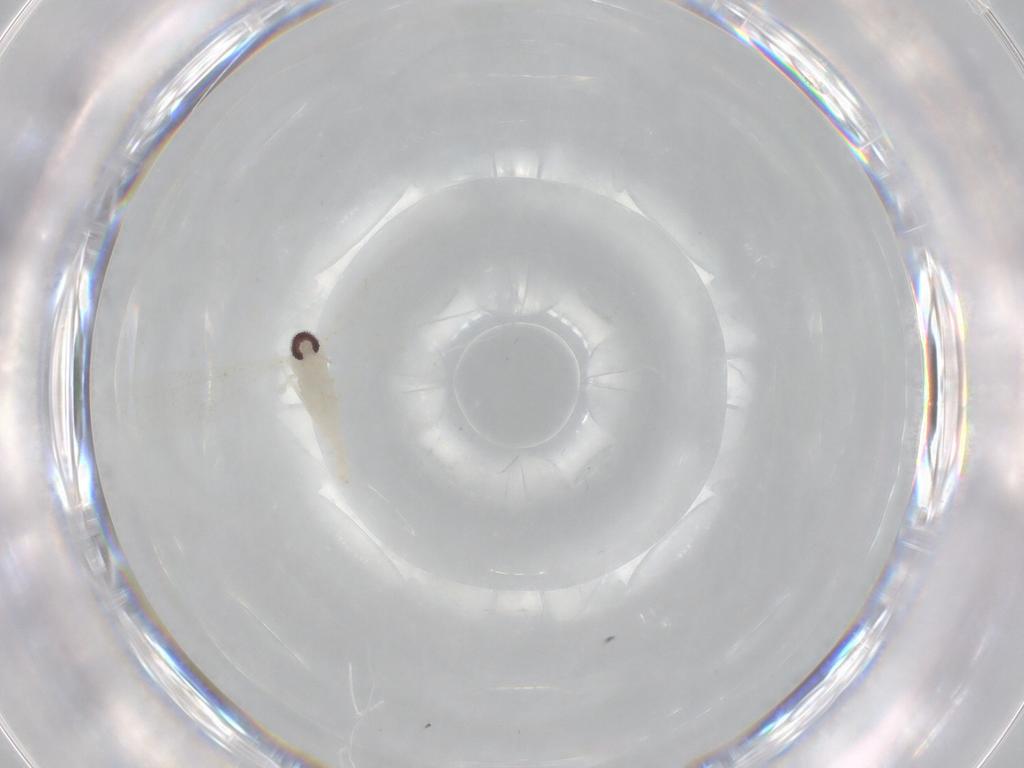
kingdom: Animalia
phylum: Arthropoda
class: Insecta
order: Diptera
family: Cecidomyiidae
